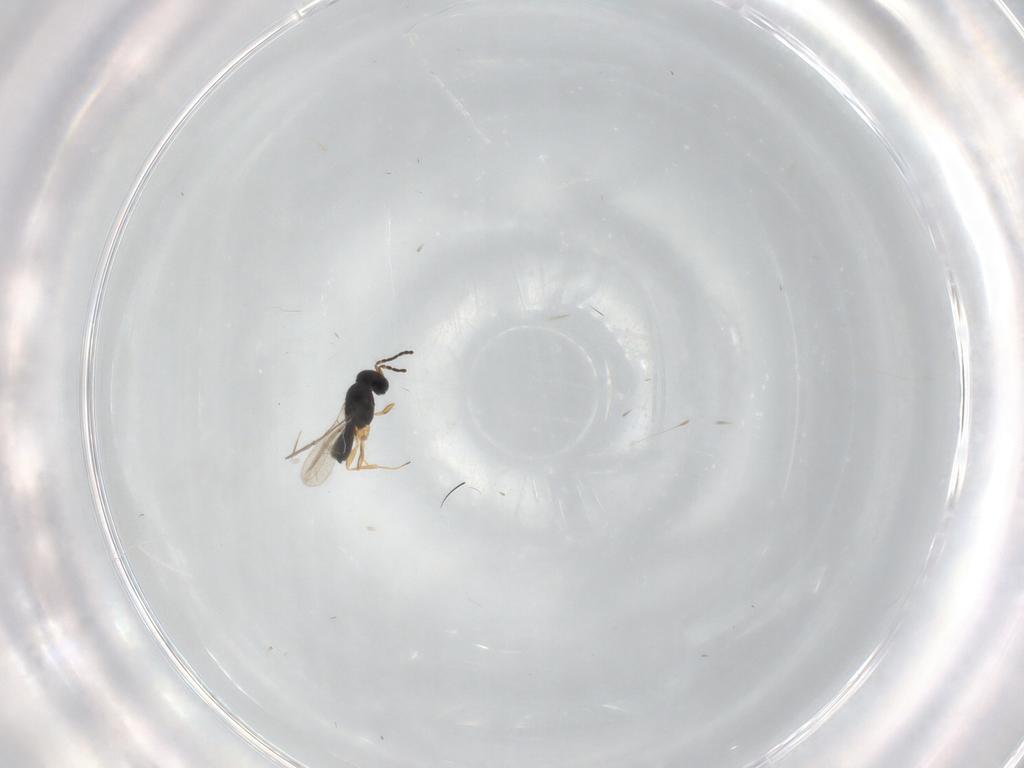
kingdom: Animalia
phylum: Arthropoda
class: Insecta
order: Hymenoptera
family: Scelionidae
